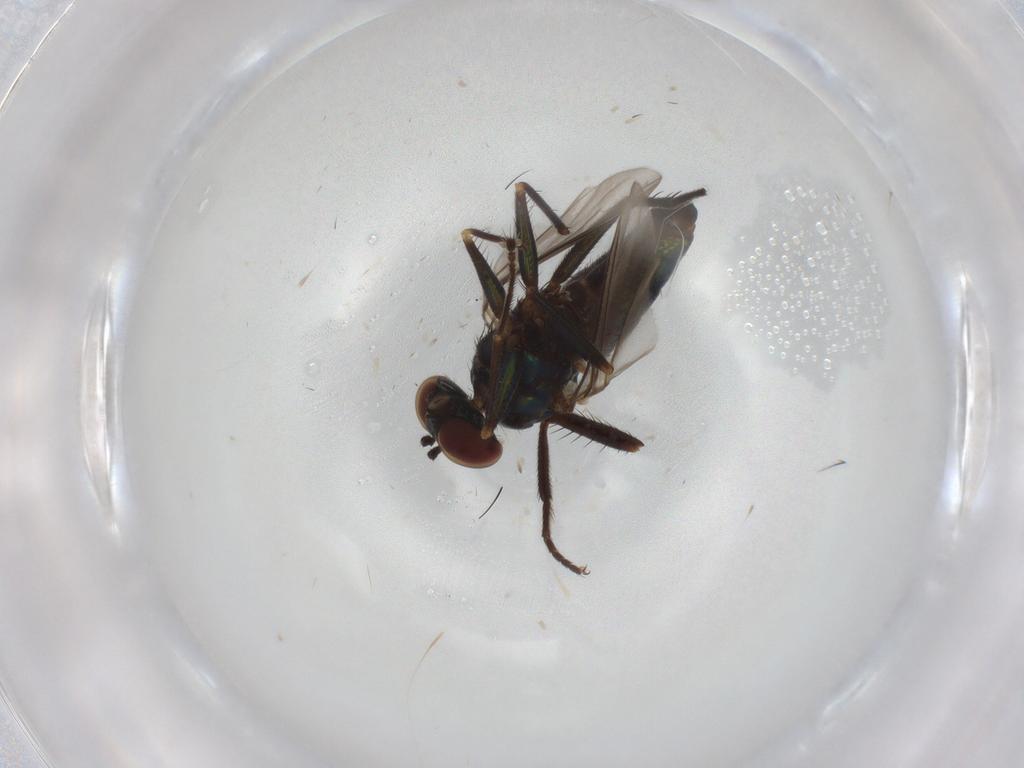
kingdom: Animalia
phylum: Arthropoda
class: Insecta
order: Diptera
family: Dolichopodidae
